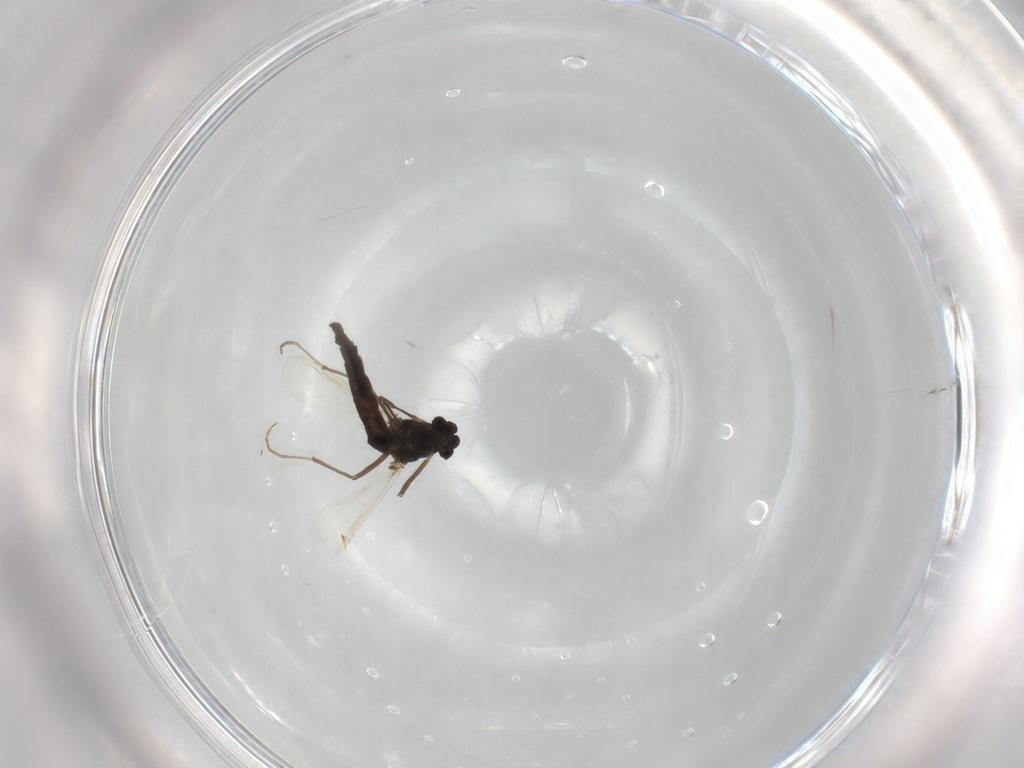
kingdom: Animalia
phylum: Arthropoda
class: Insecta
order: Diptera
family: Chironomidae
